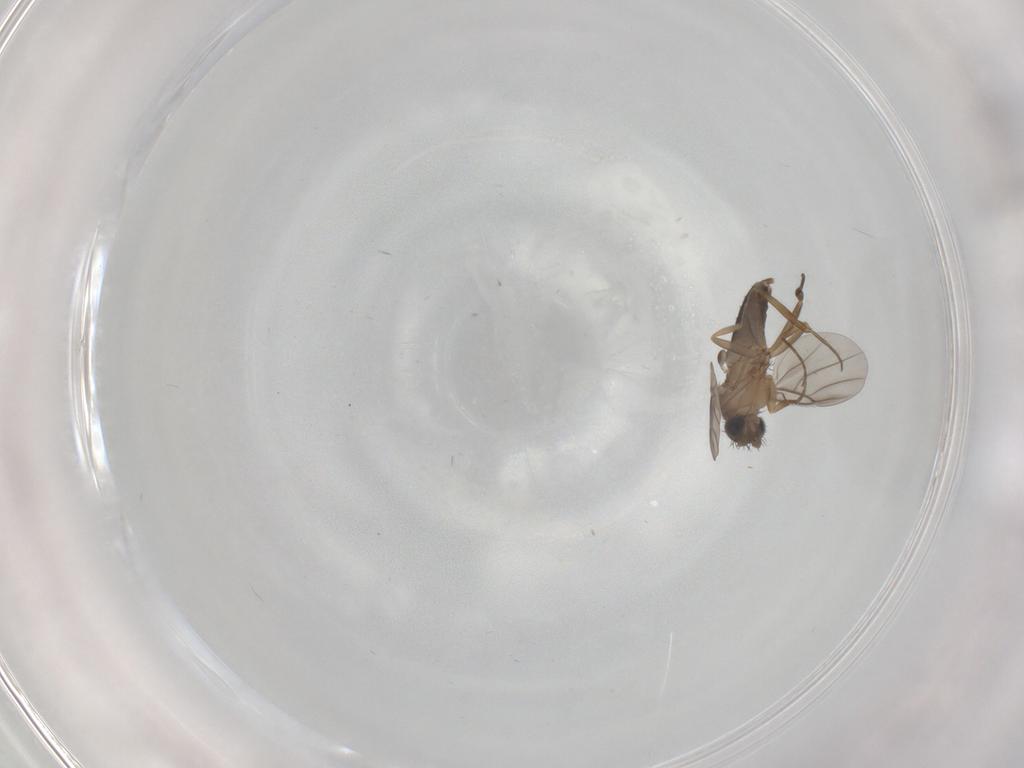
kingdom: Animalia
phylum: Arthropoda
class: Insecta
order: Diptera
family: Cecidomyiidae
